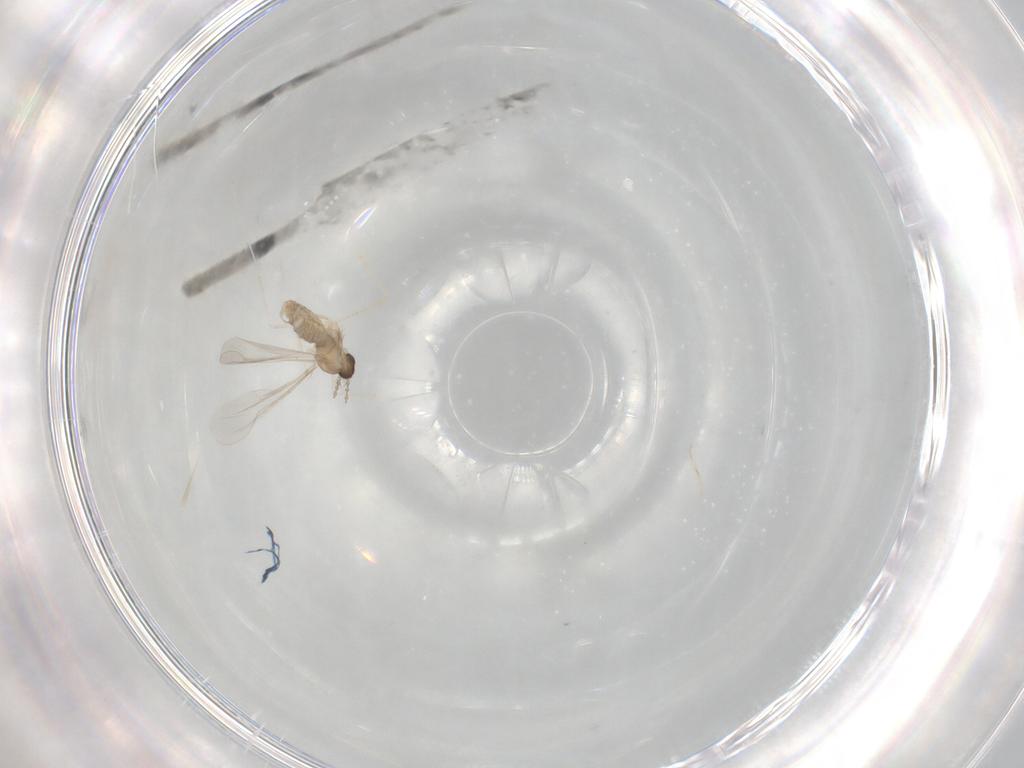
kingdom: Animalia
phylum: Arthropoda
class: Insecta
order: Diptera
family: Cecidomyiidae
